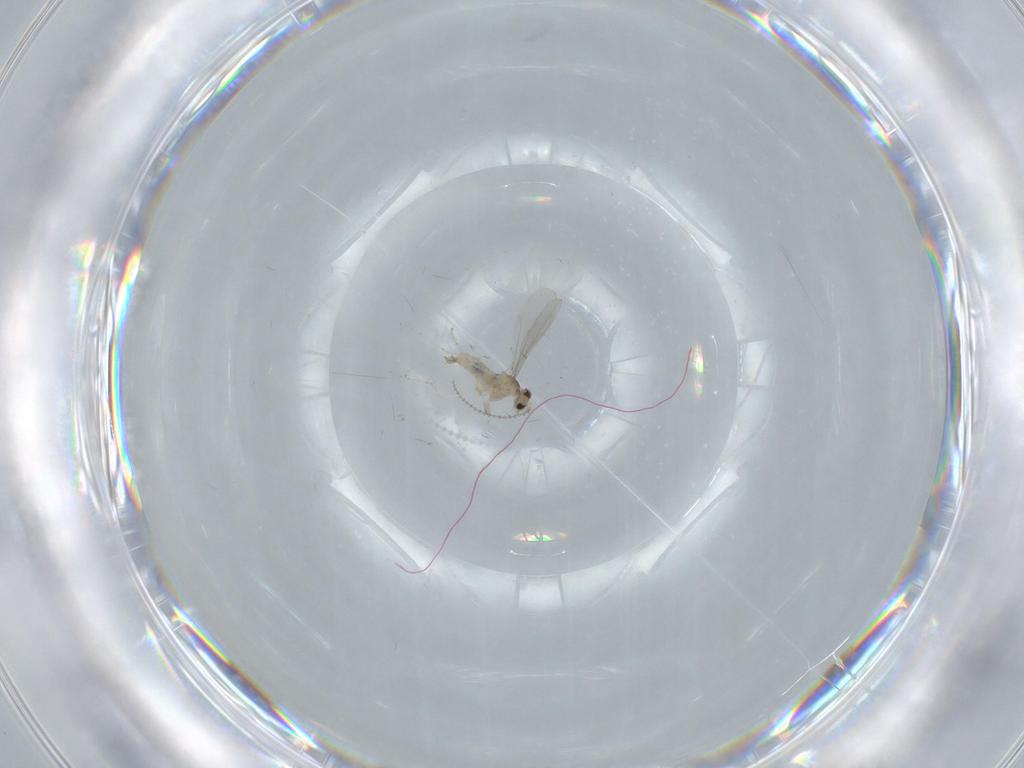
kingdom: Animalia
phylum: Arthropoda
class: Insecta
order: Diptera
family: Cecidomyiidae
